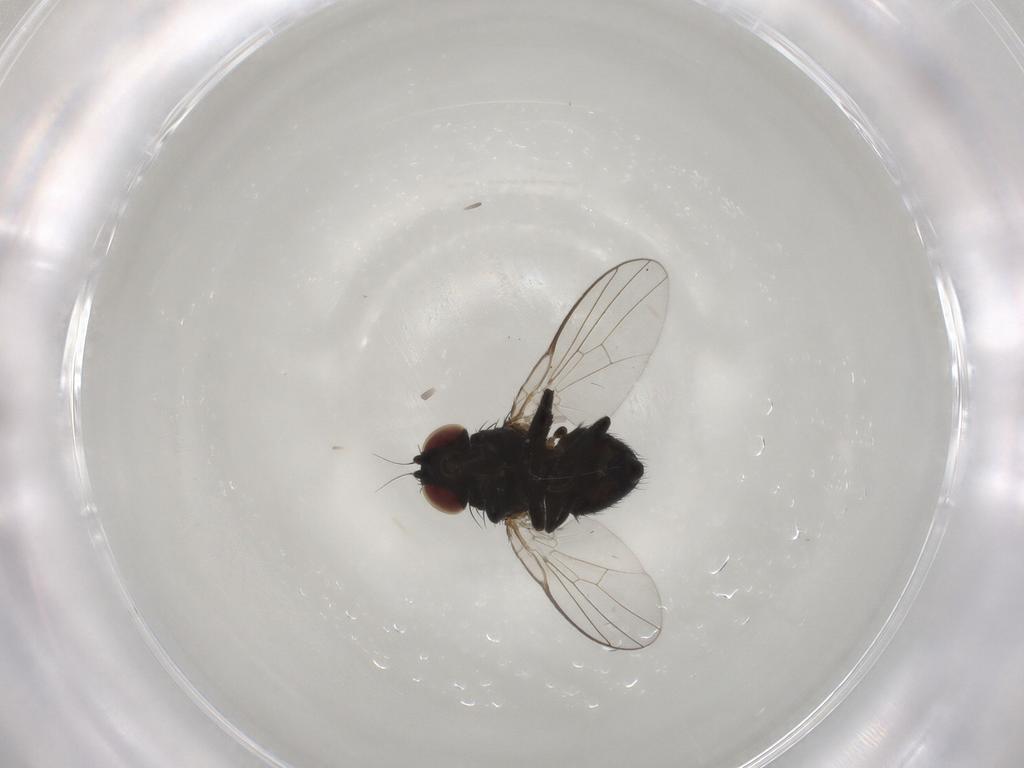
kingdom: Animalia
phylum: Arthropoda
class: Insecta
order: Diptera
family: Agromyzidae
